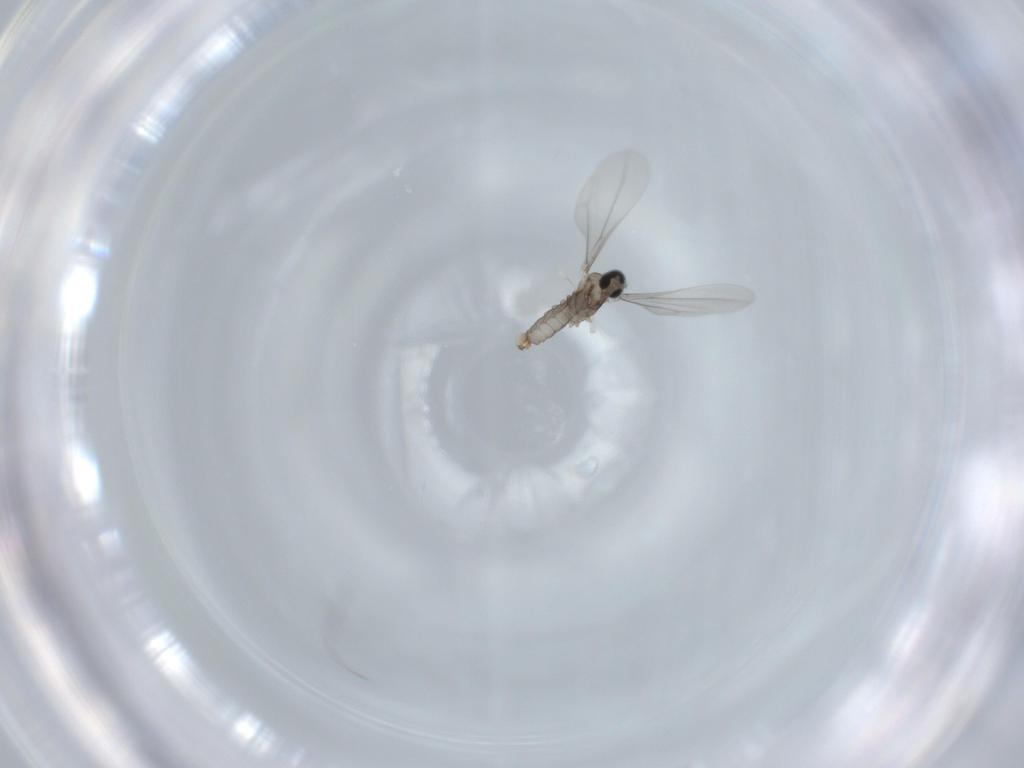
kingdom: Animalia
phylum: Arthropoda
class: Insecta
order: Diptera
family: Cecidomyiidae
